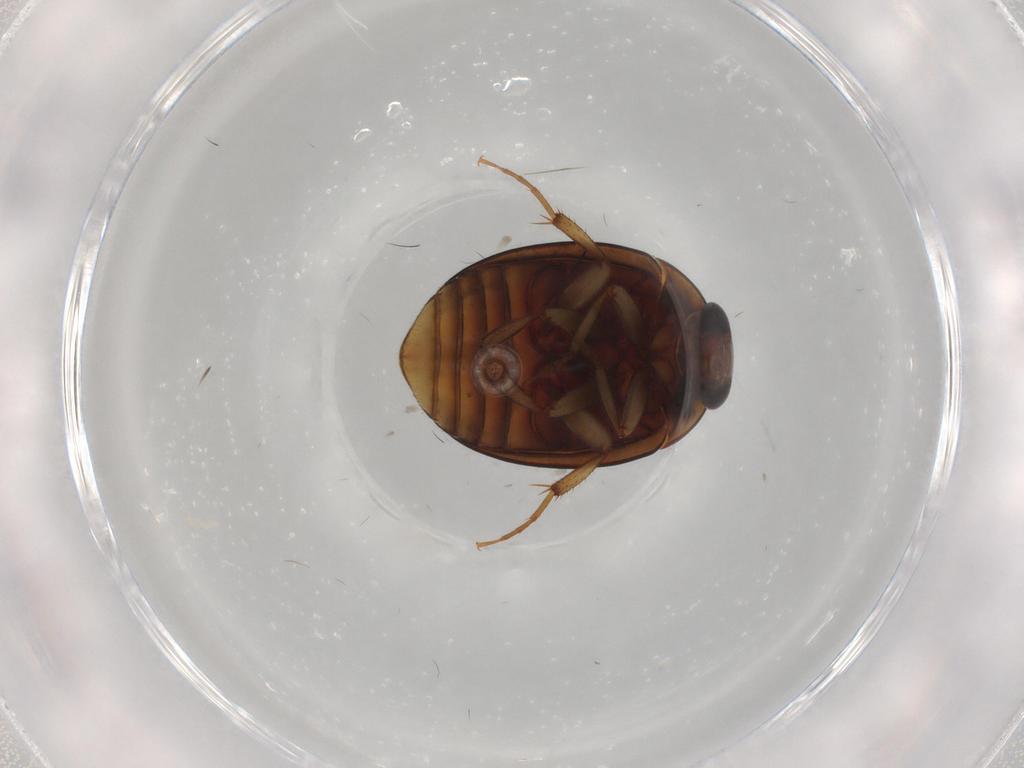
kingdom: Animalia
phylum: Arthropoda
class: Insecta
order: Coleoptera
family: Nitidulidae
